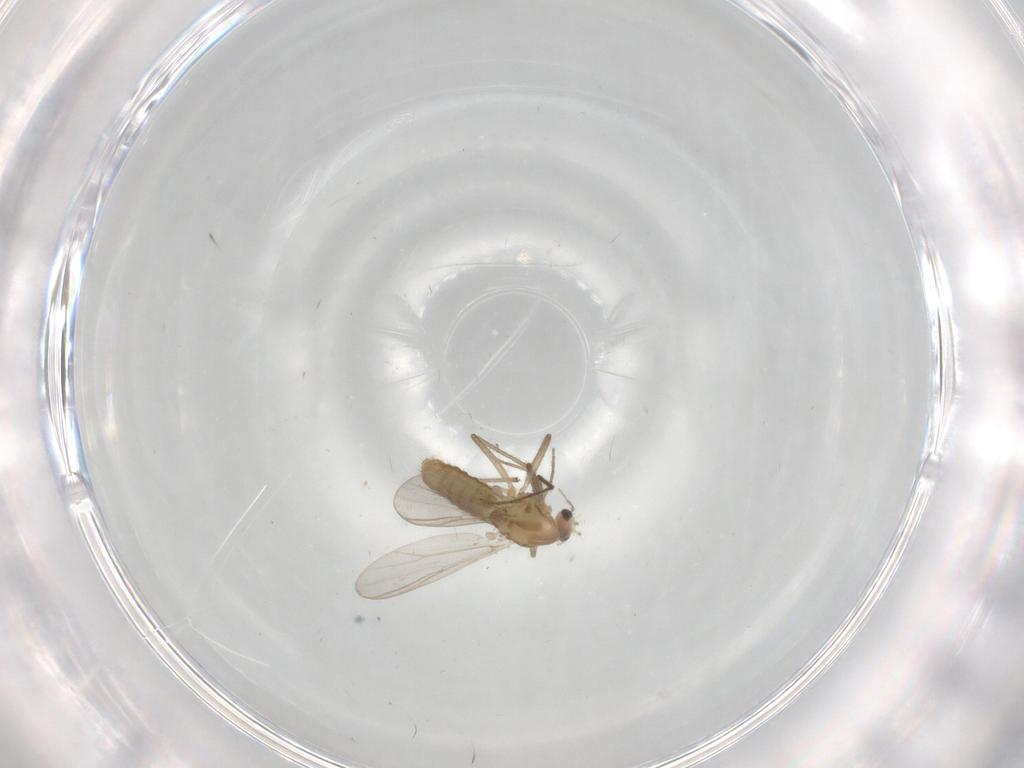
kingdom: Animalia
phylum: Arthropoda
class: Insecta
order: Diptera
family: Chironomidae
